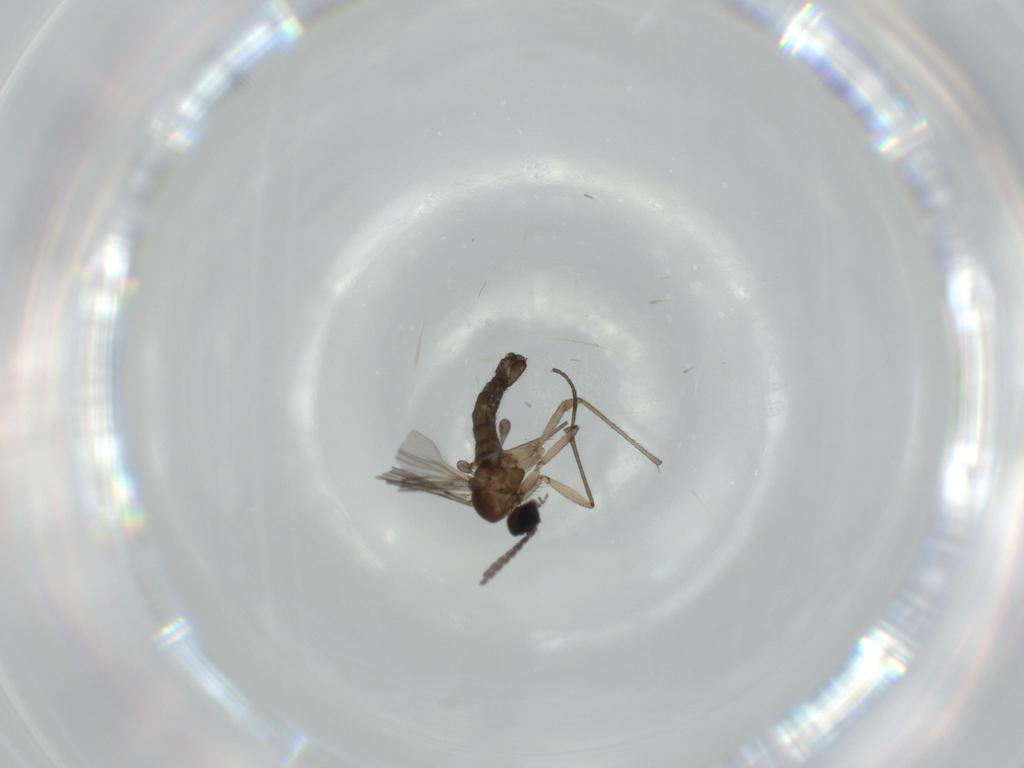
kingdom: Animalia
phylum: Arthropoda
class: Insecta
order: Diptera
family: Sciaridae
